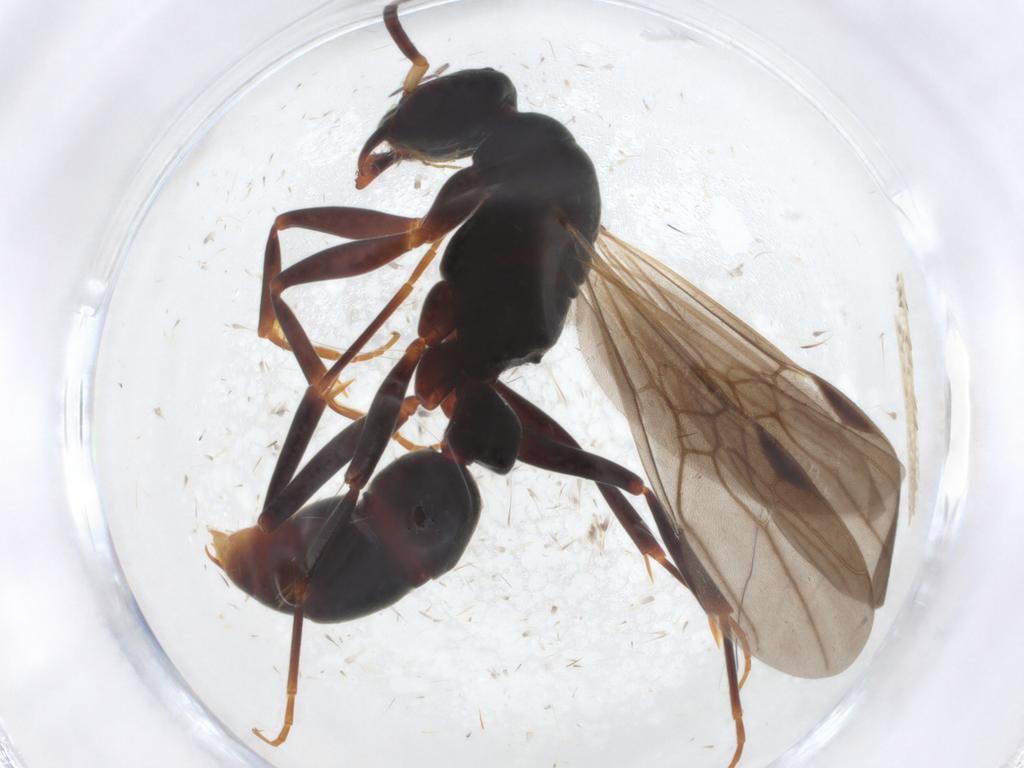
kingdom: Animalia
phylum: Arthropoda
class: Insecta
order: Hymenoptera
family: Formicidae
